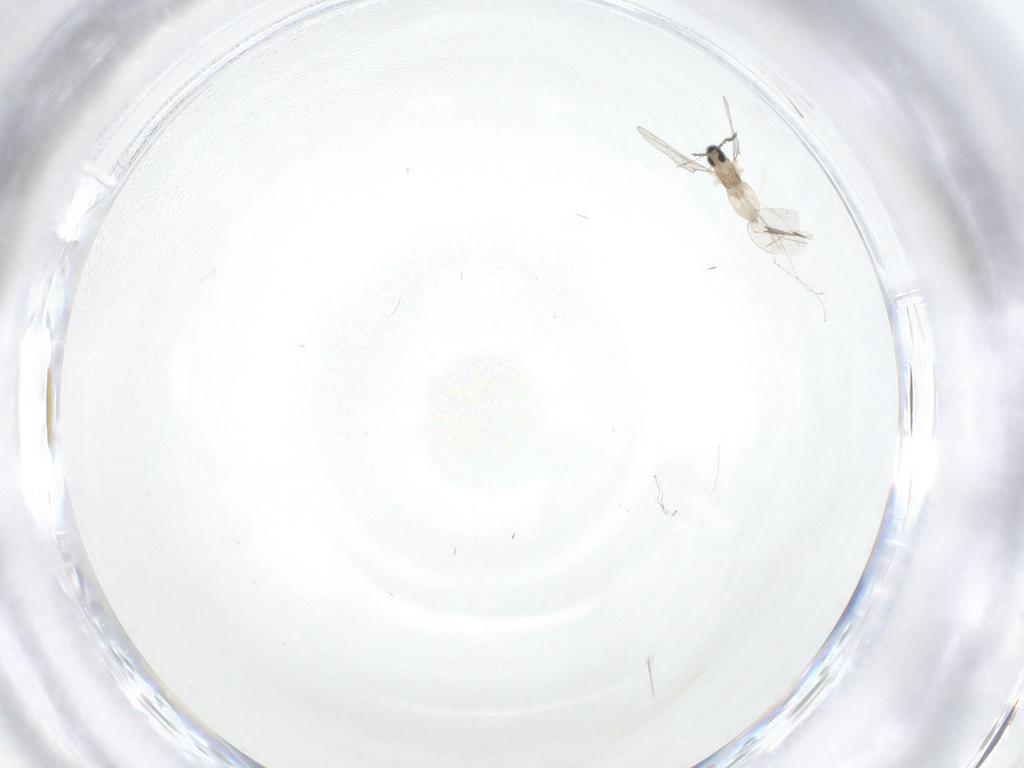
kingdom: Animalia
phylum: Arthropoda
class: Insecta
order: Diptera
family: Cecidomyiidae
